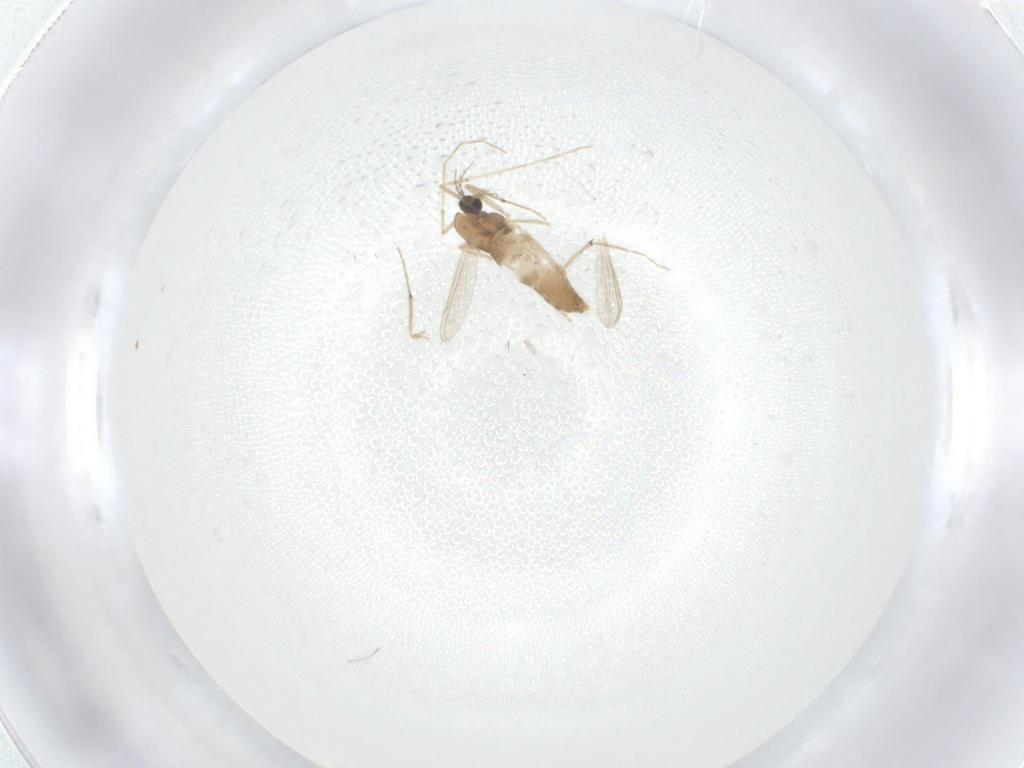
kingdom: Animalia
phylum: Arthropoda
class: Insecta
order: Diptera
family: Chironomidae
